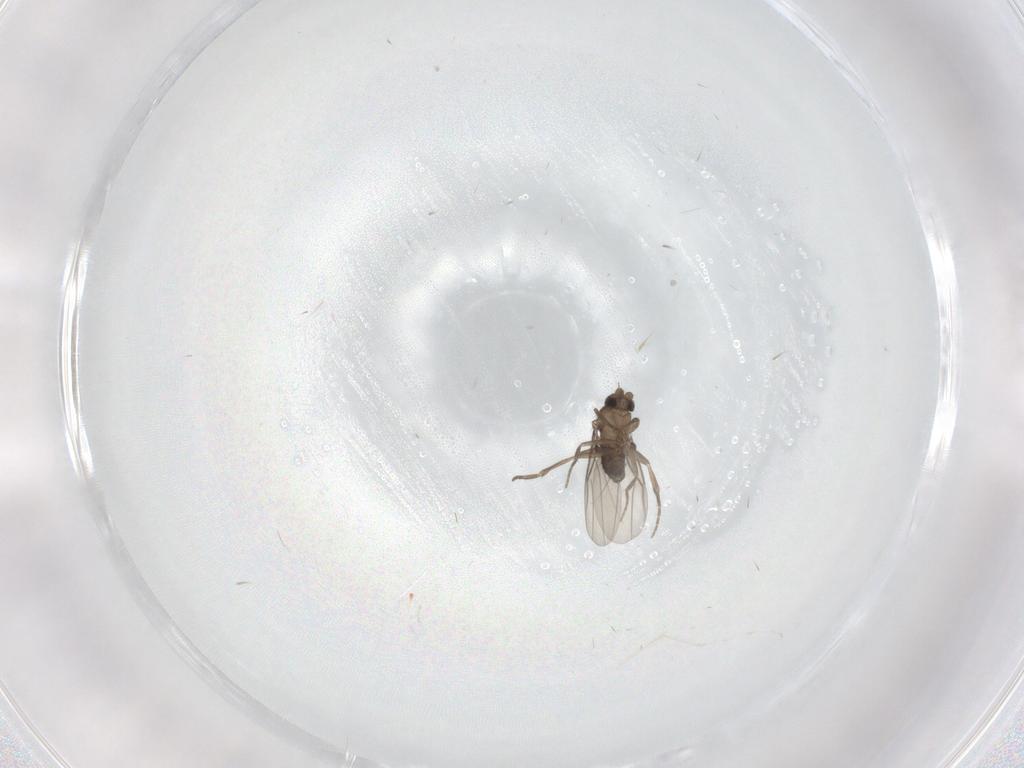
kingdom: Animalia
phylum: Arthropoda
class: Insecta
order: Diptera
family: Phoridae
